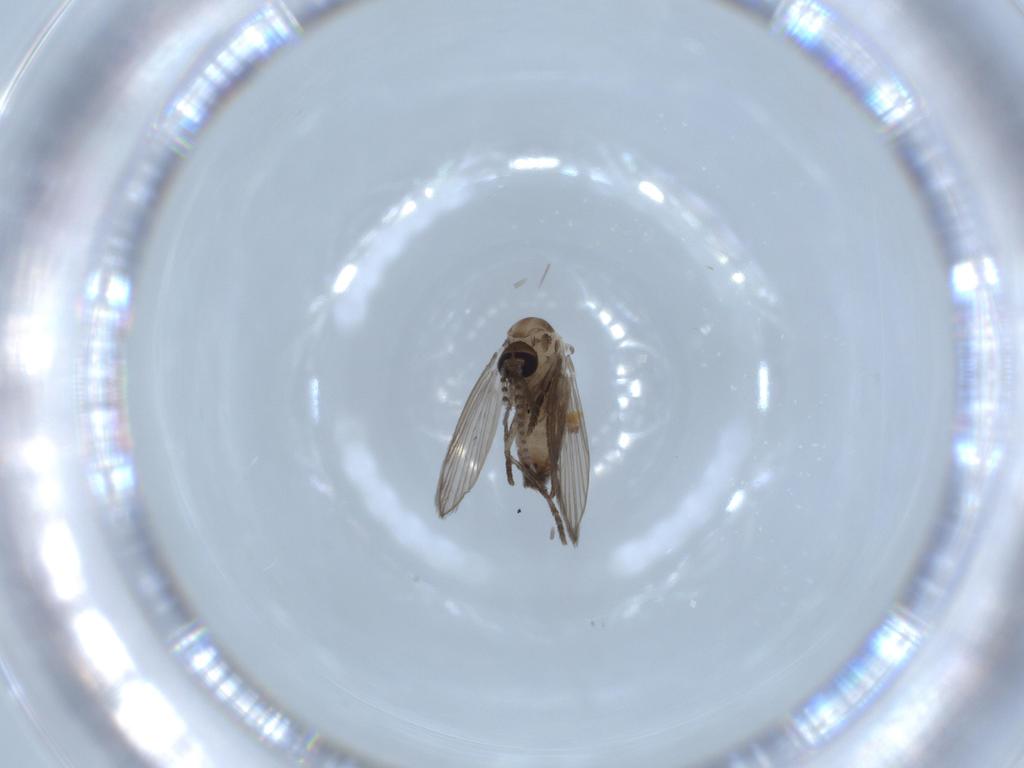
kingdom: Animalia
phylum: Arthropoda
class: Insecta
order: Diptera
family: Psychodidae
